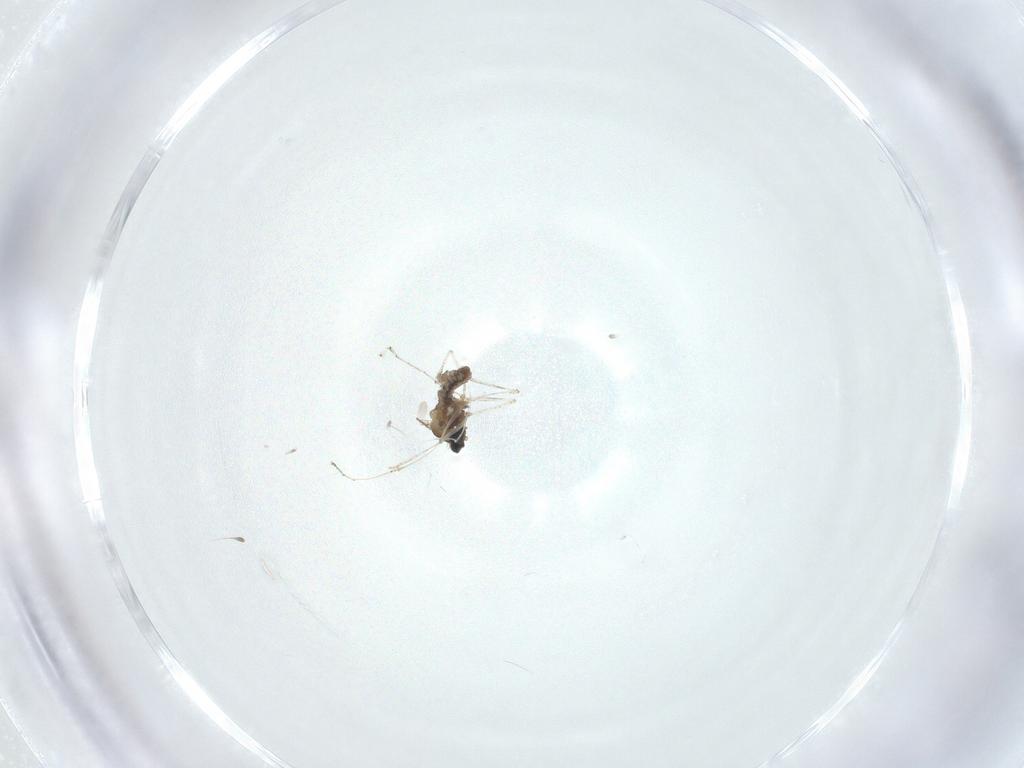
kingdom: Animalia
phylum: Arthropoda
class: Insecta
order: Diptera
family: Cecidomyiidae
